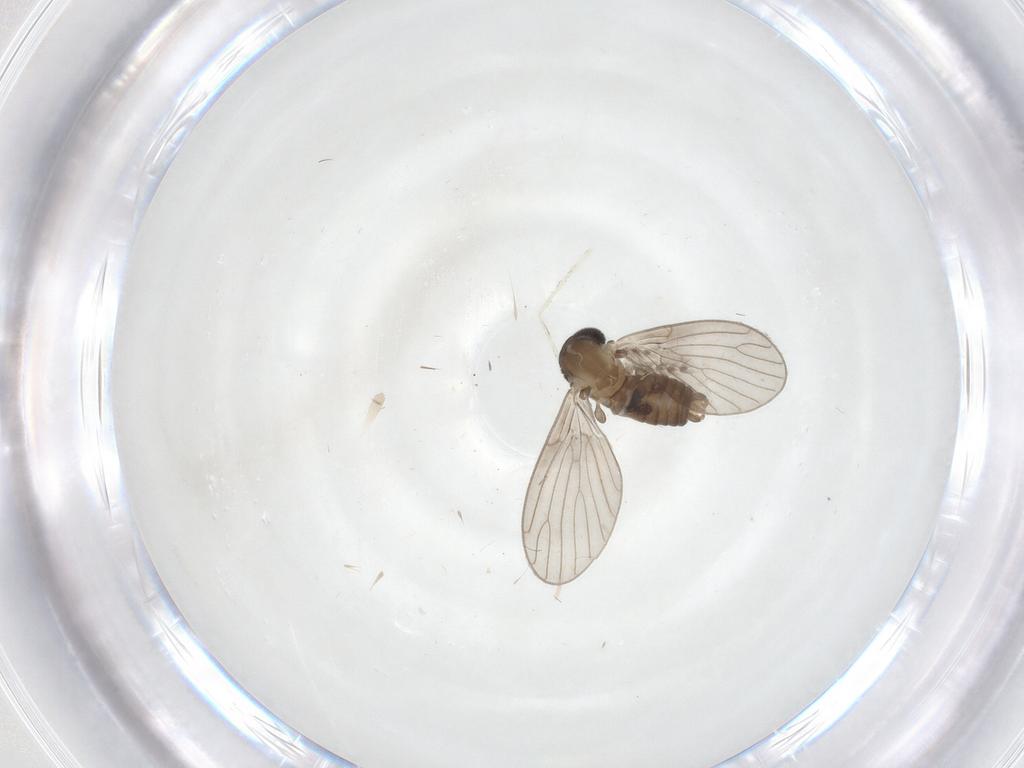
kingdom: Animalia
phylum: Arthropoda
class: Insecta
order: Diptera
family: Psychodidae
